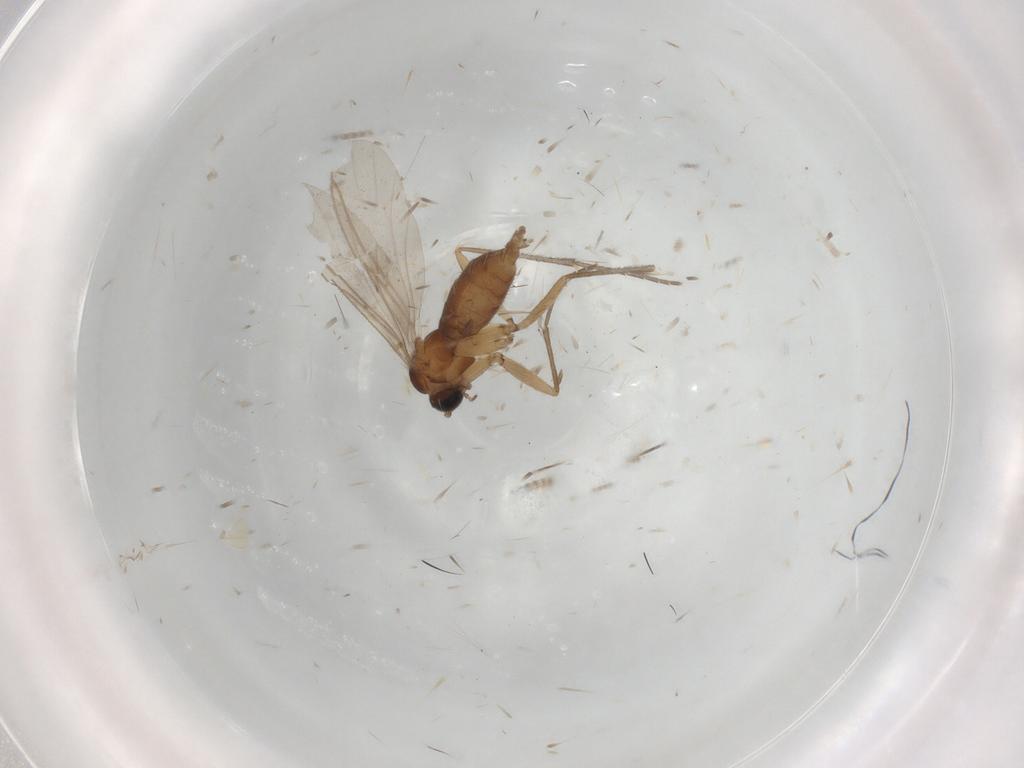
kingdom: Animalia
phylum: Arthropoda
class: Insecta
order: Diptera
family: Sciaridae
